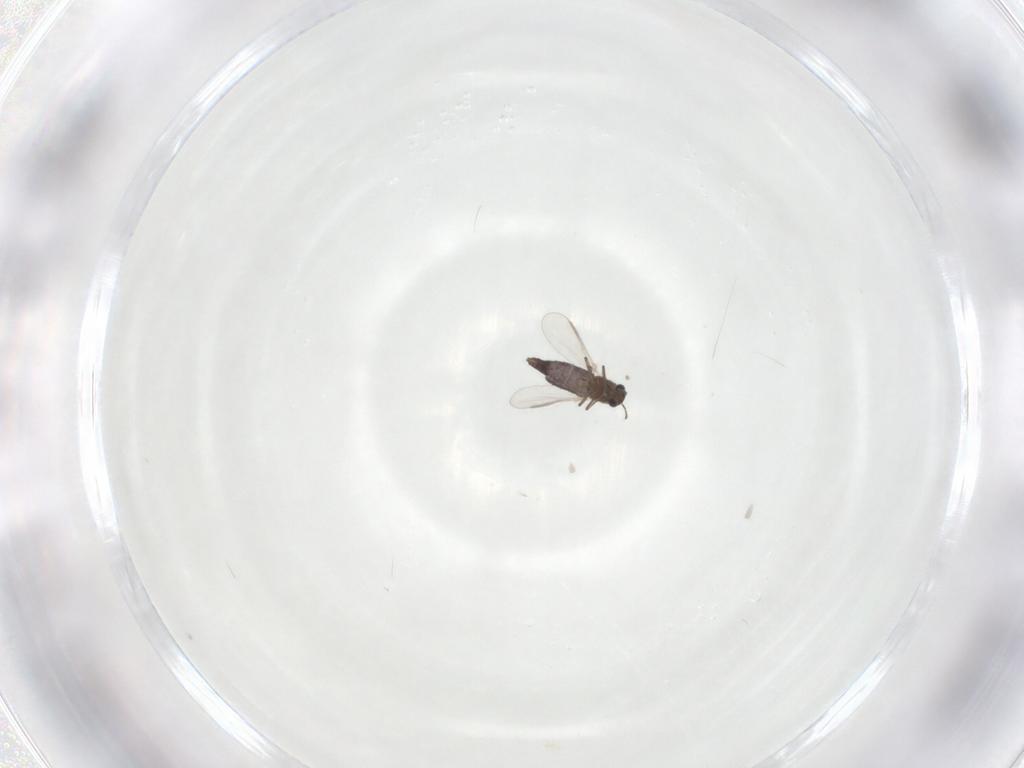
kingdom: Animalia
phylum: Arthropoda
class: Insecta
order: Diptera
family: Chironomidae
